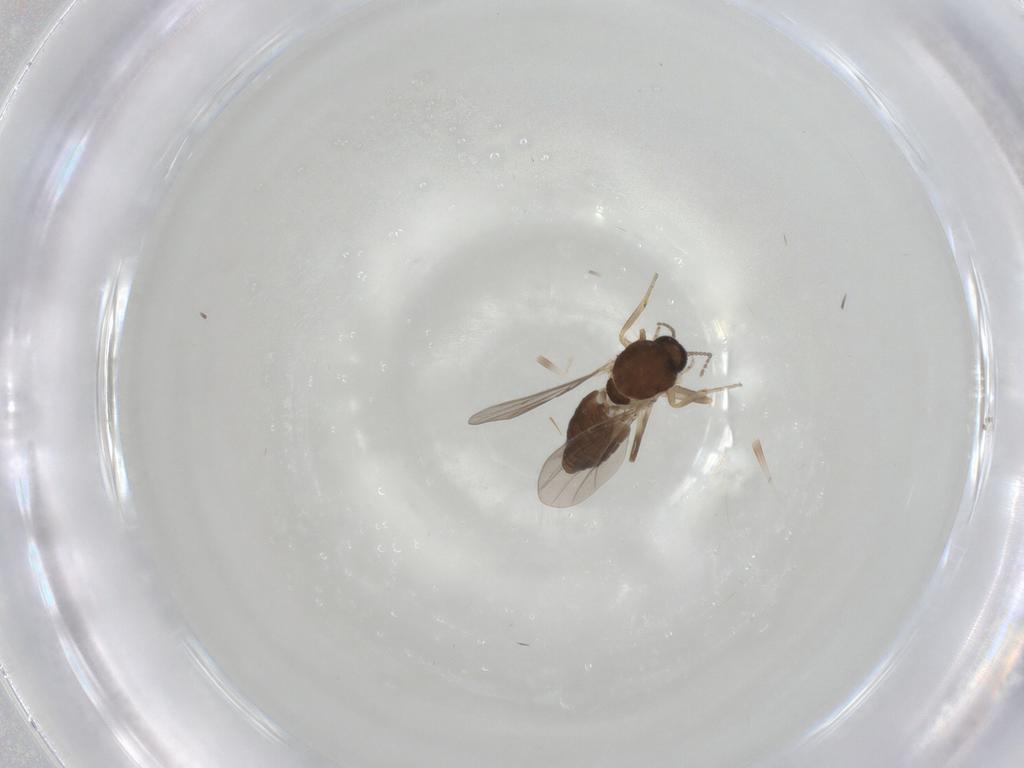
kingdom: Animalia
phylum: Arthropoda
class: Insecta
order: Diptera
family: Ceratopogonidae
